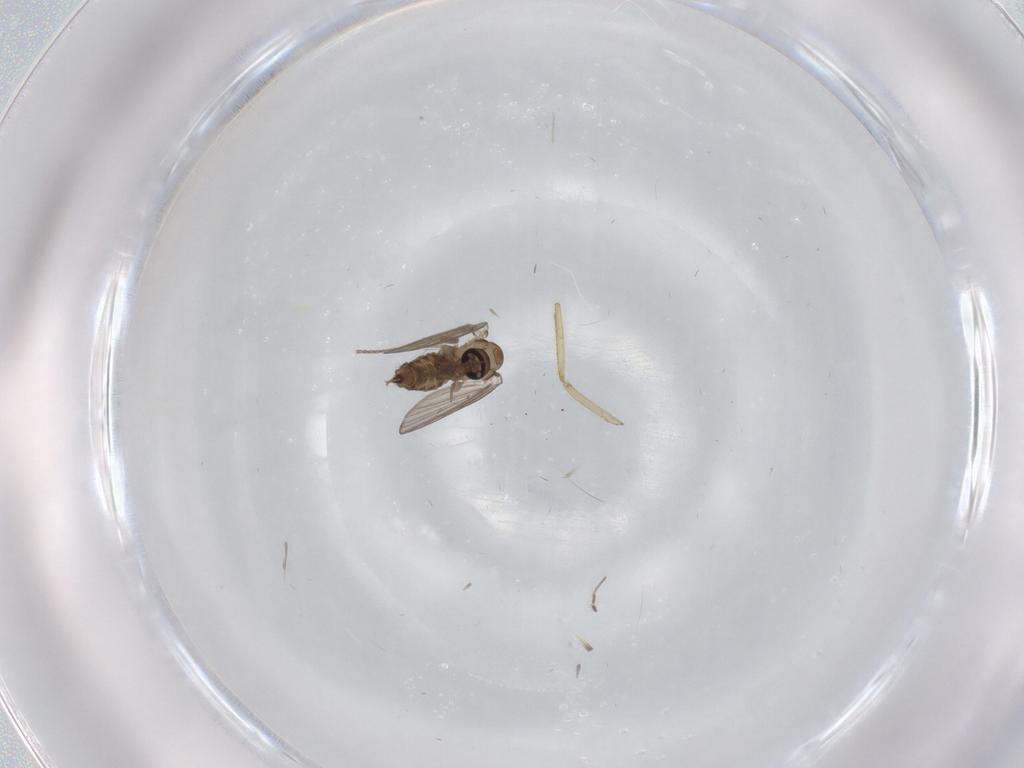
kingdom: Animalia
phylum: Arthropoda
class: Insecta
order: Diptera
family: Psychodidae
